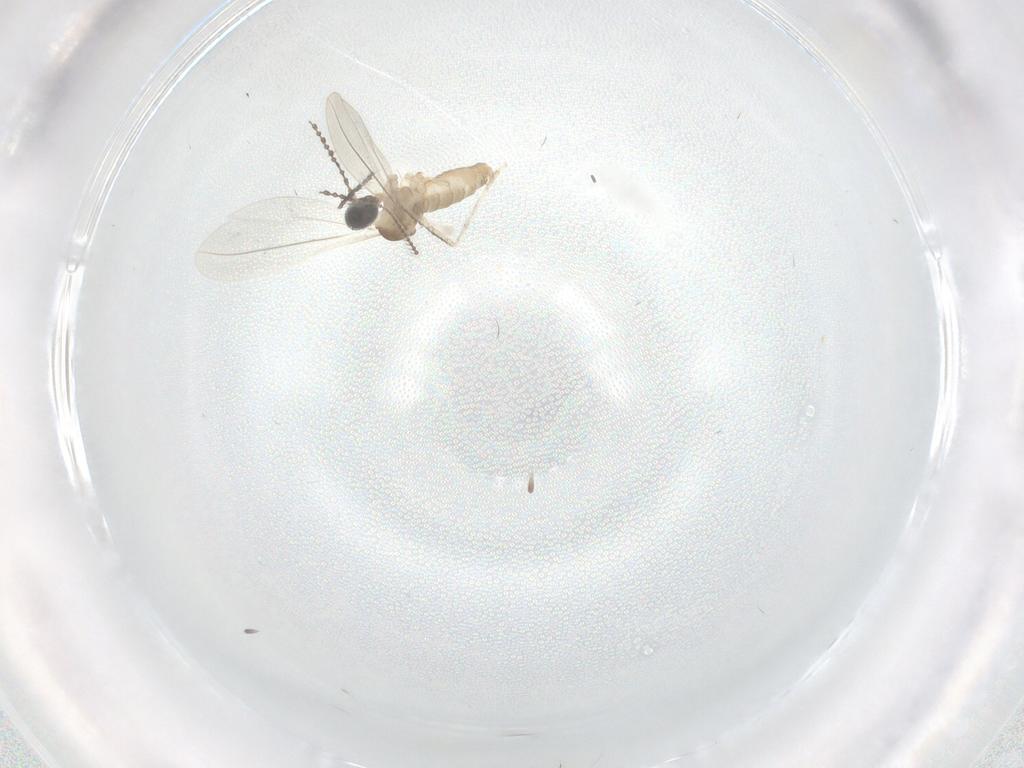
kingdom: Animalia
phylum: Arthropoda
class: Insecta
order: Diptera
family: Cecidomyiidae
